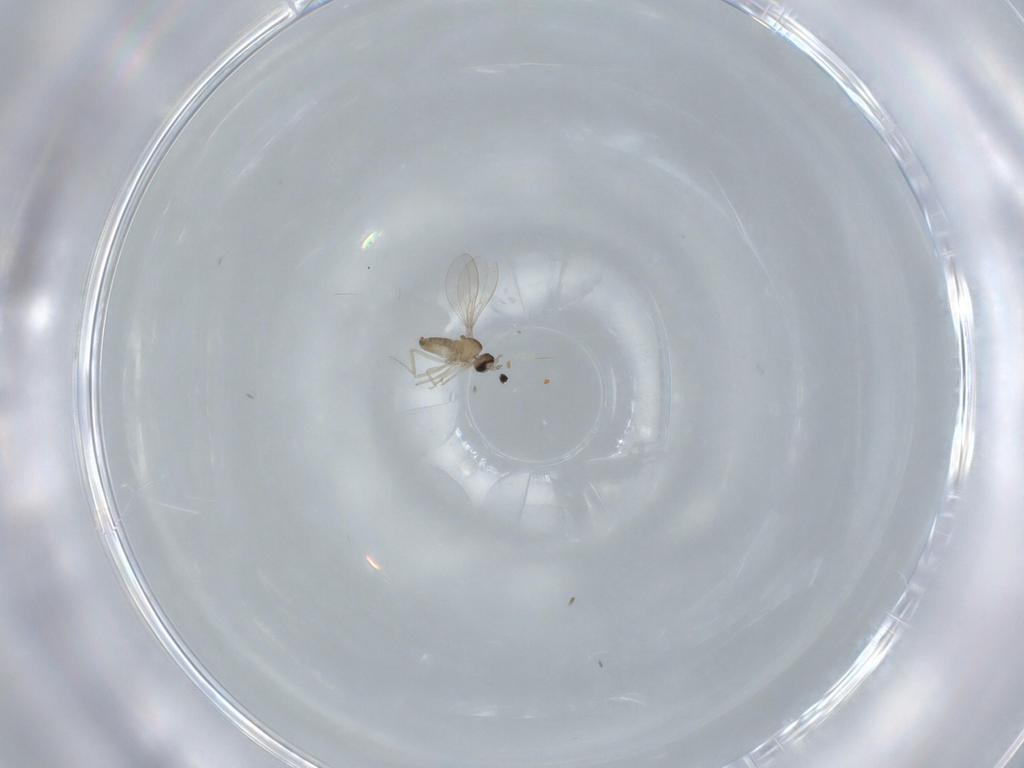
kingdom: Animalia
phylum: Arthropoda
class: Insecta
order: Diptera
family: Cecidomyiidae
